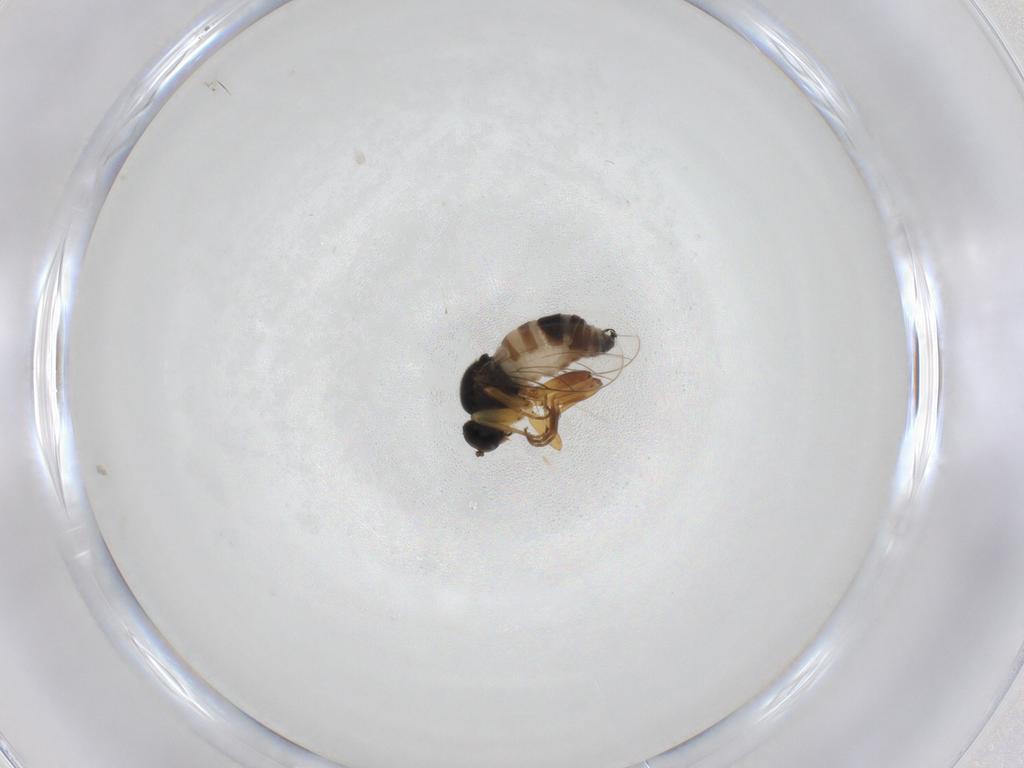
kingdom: Animalia
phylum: Arthropoda
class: Insecta
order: Diptera
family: Hybotidae
